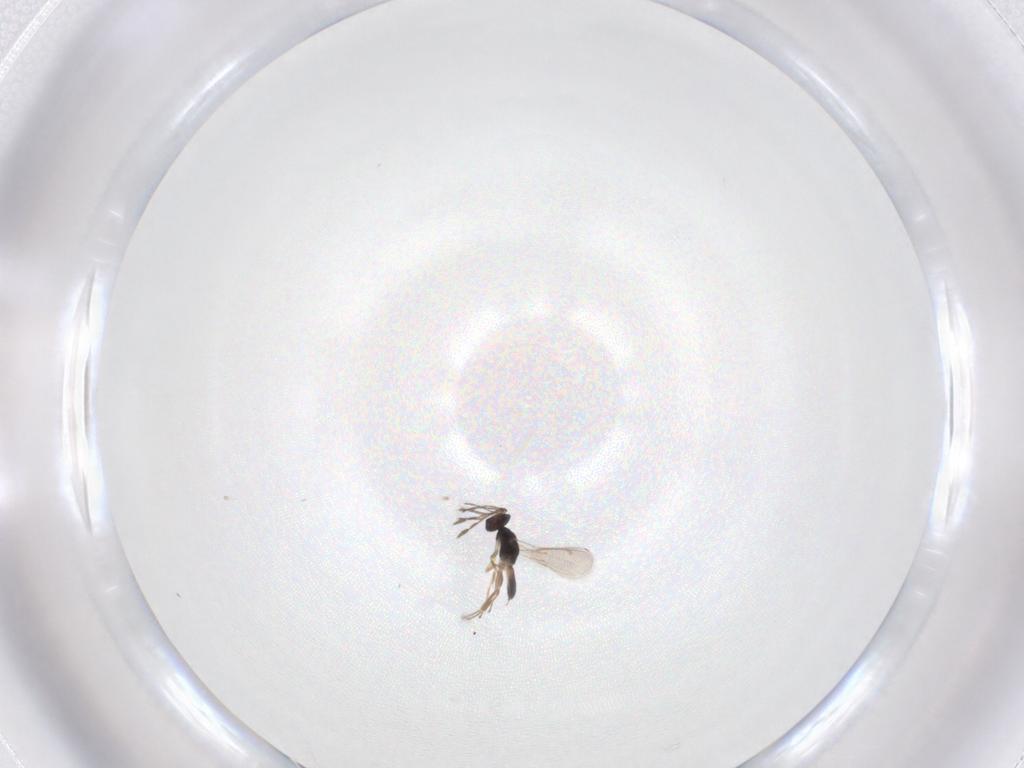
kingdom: Animalia
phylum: Arthropoda
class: Insecta
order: Hymenoptera
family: Eulophidae
